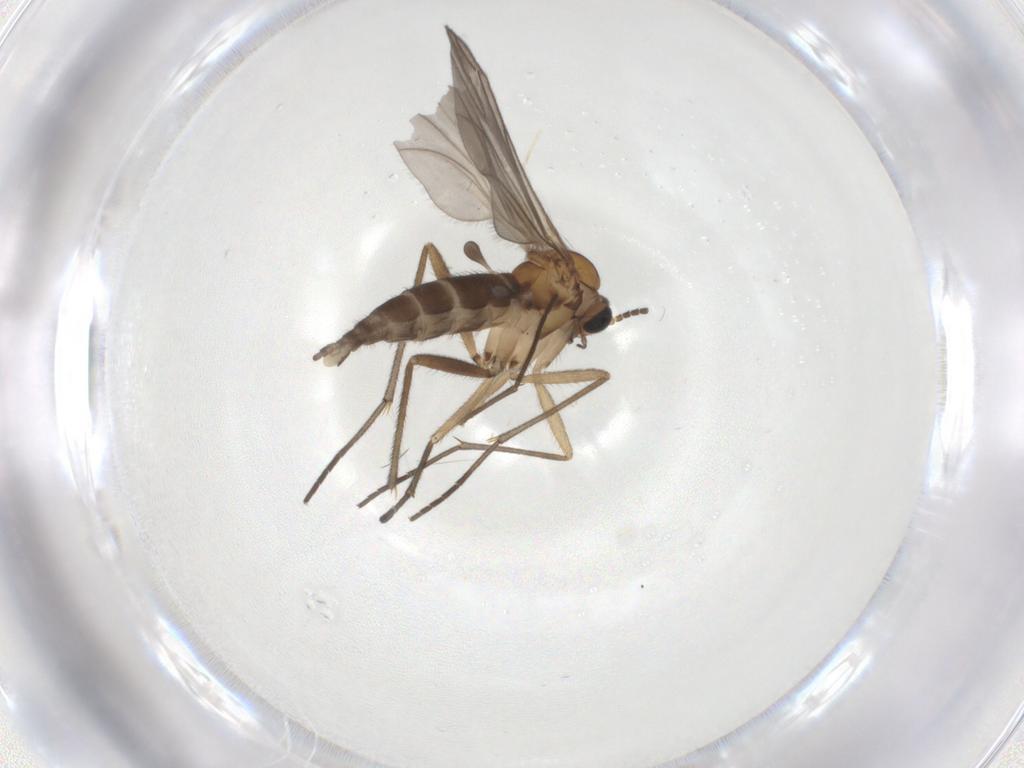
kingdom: Animalia
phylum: Arthropoda
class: Insecta
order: Diptera
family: Sciaridae
